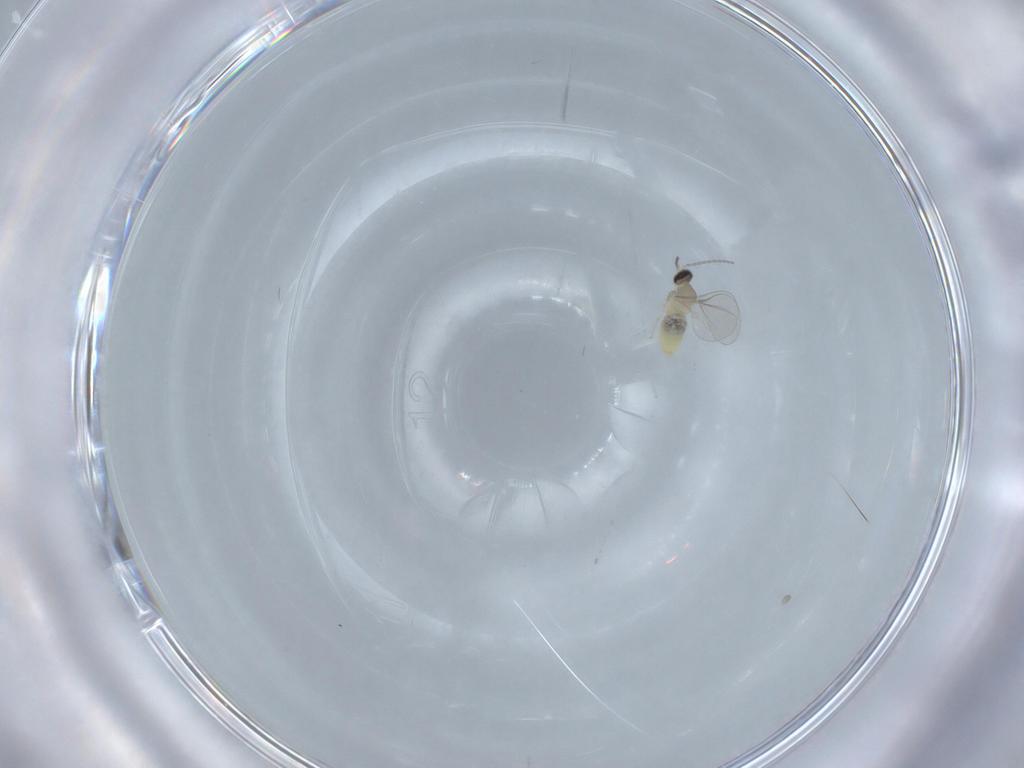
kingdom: Animalia
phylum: Arthropoda
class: Insecta
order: Diptera
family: Cecidomyiidae
